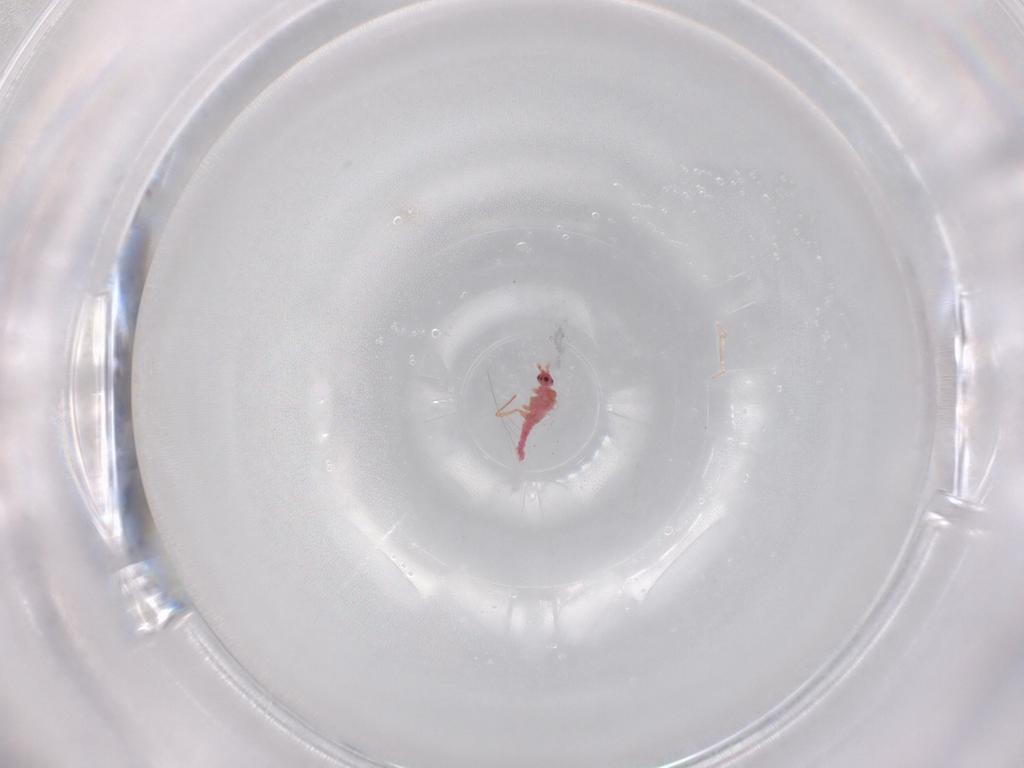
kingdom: Animalia
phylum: Arthropoda
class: Insecta
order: Hemiptera
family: Pseudococcidae
